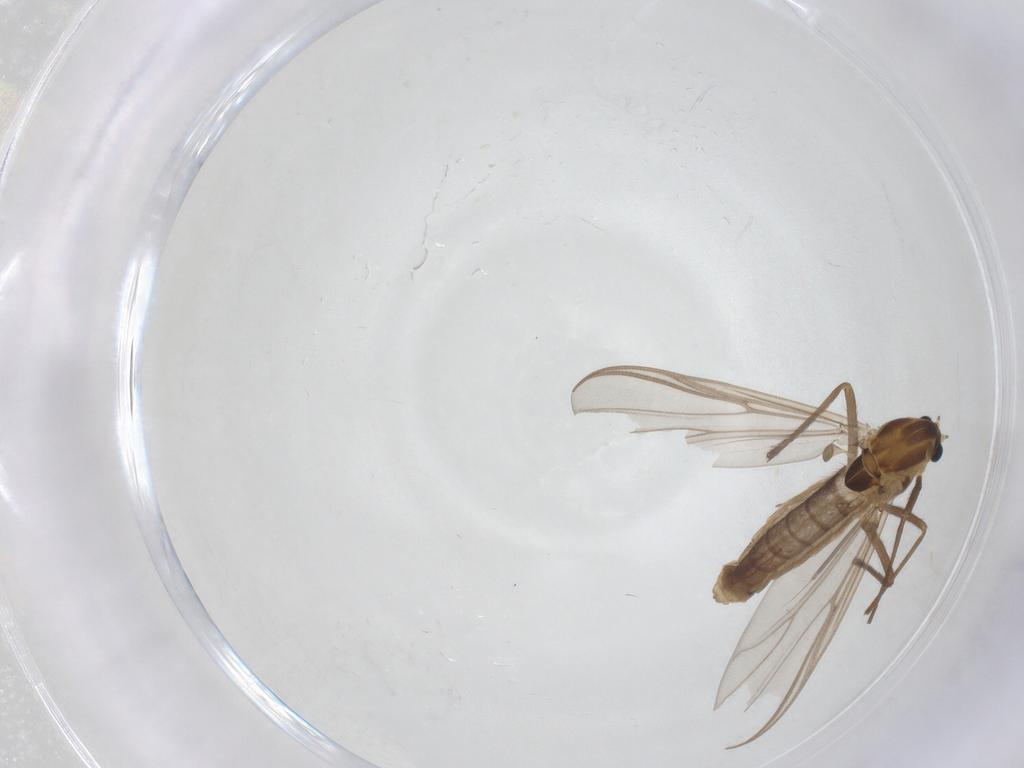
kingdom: Animalia
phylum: Arthropoda
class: Insecta
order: Diptera
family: Chironomidae
